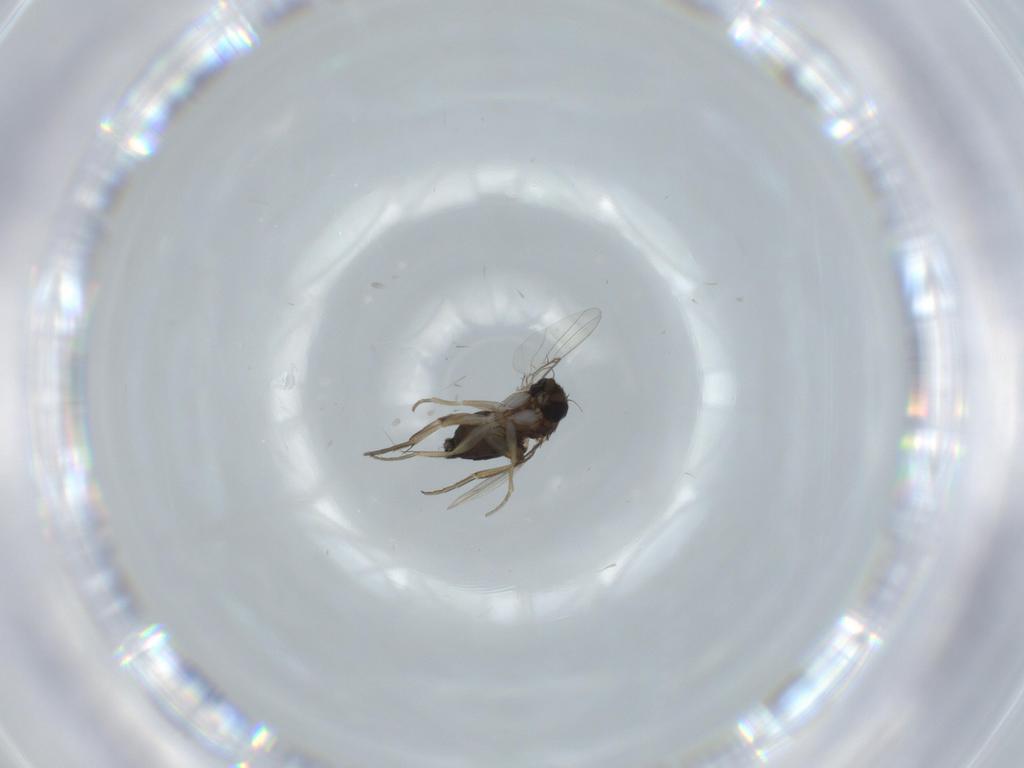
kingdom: Animalia
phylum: Arthropoda
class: Insecta
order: Diptera
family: Phoridae
